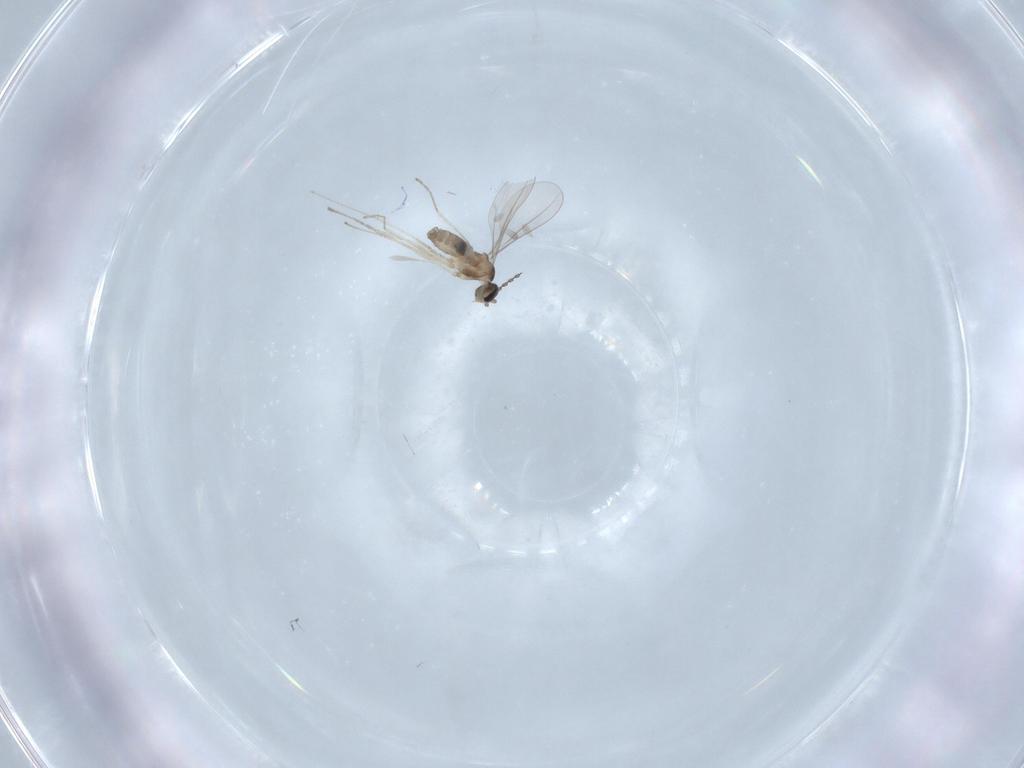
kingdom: Animalia
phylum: Arthropoda
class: Insecta
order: Diptera
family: Cecidomyiidae
